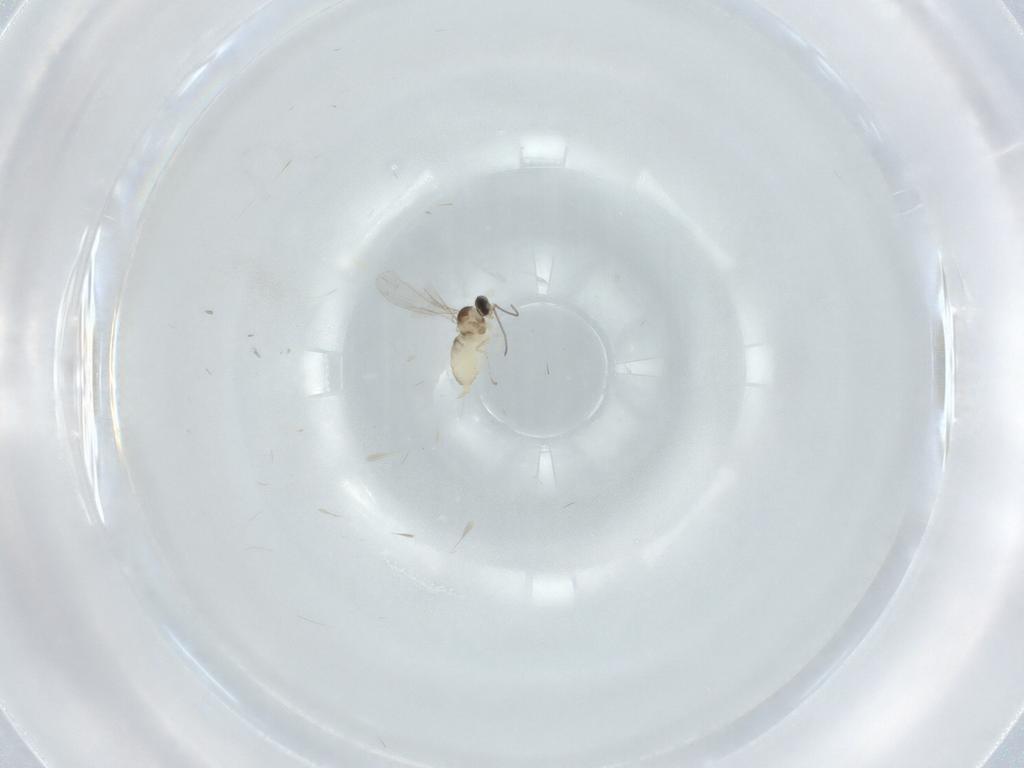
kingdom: Animalia
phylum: Arthropoda
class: Insecta
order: Diptera
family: Cecidomyiidae
